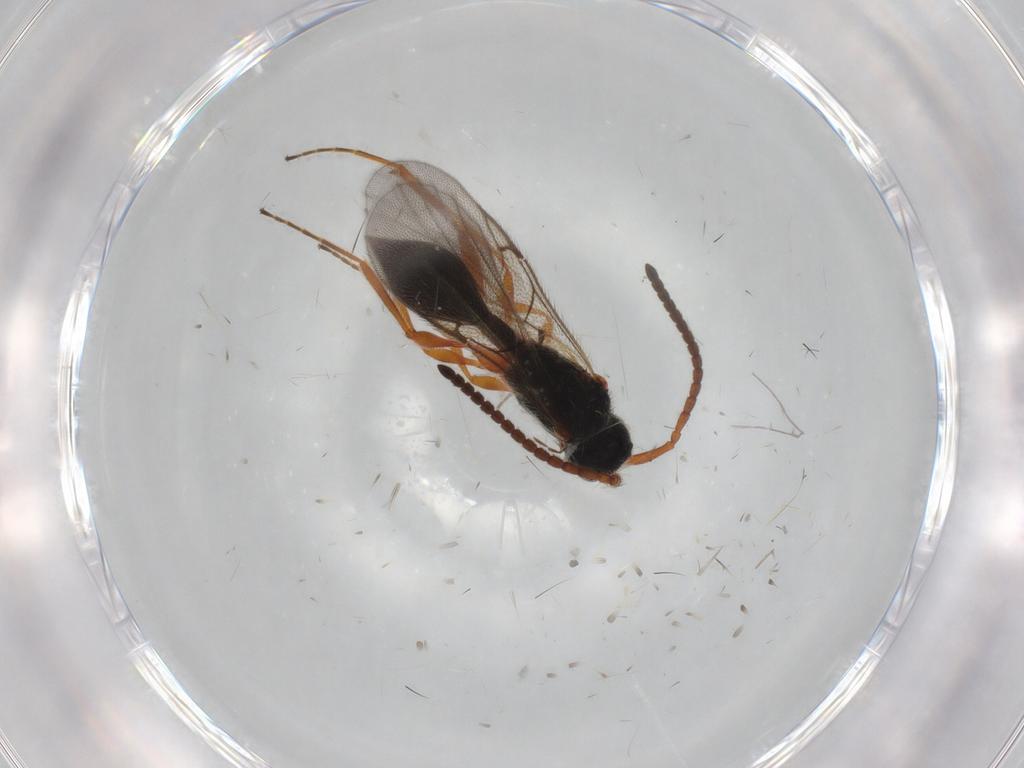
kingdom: Animalia
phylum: Arthropoda
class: Insecta
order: Hymenoptera
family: Diapriidae
